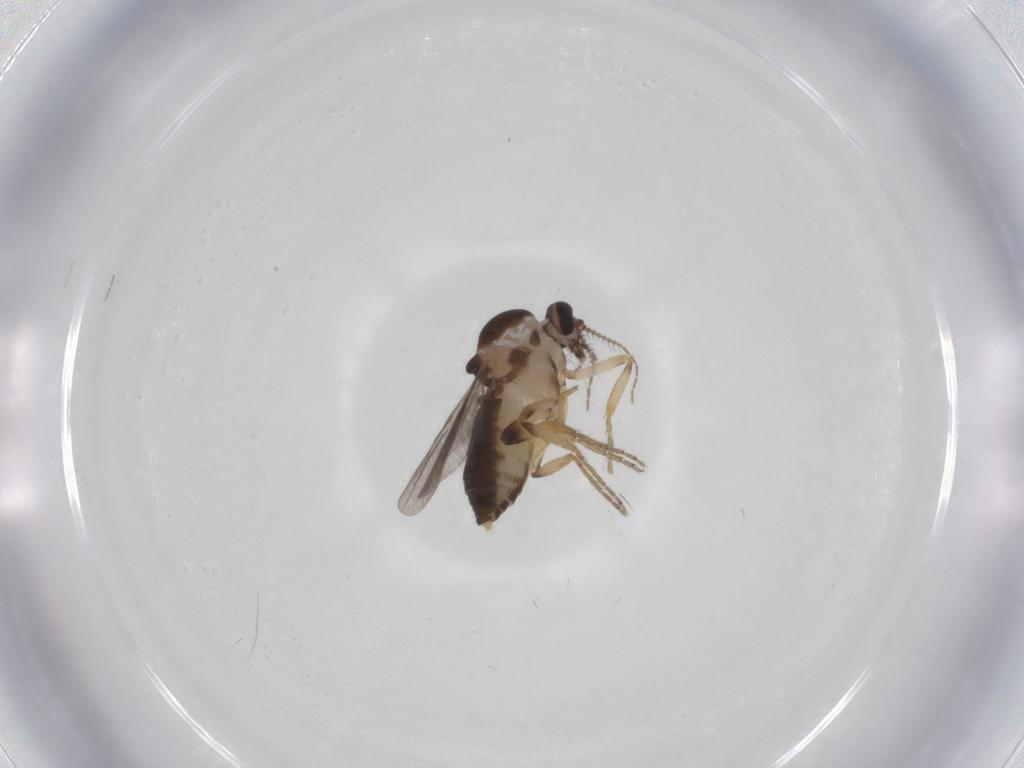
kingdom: Animalia
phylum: Arthropoda
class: Insecta
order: Diptera
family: Ceratopogonidae
